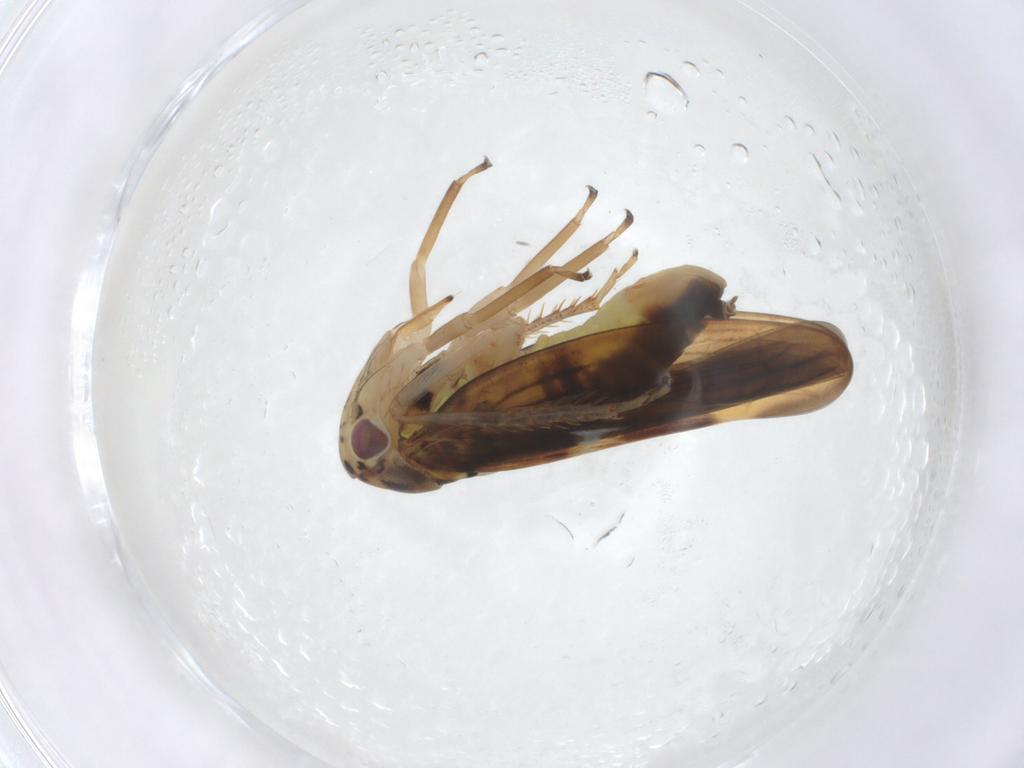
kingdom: Animalia
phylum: Arthropoda
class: Insecta
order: Hemiptera
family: Cicadellidae
